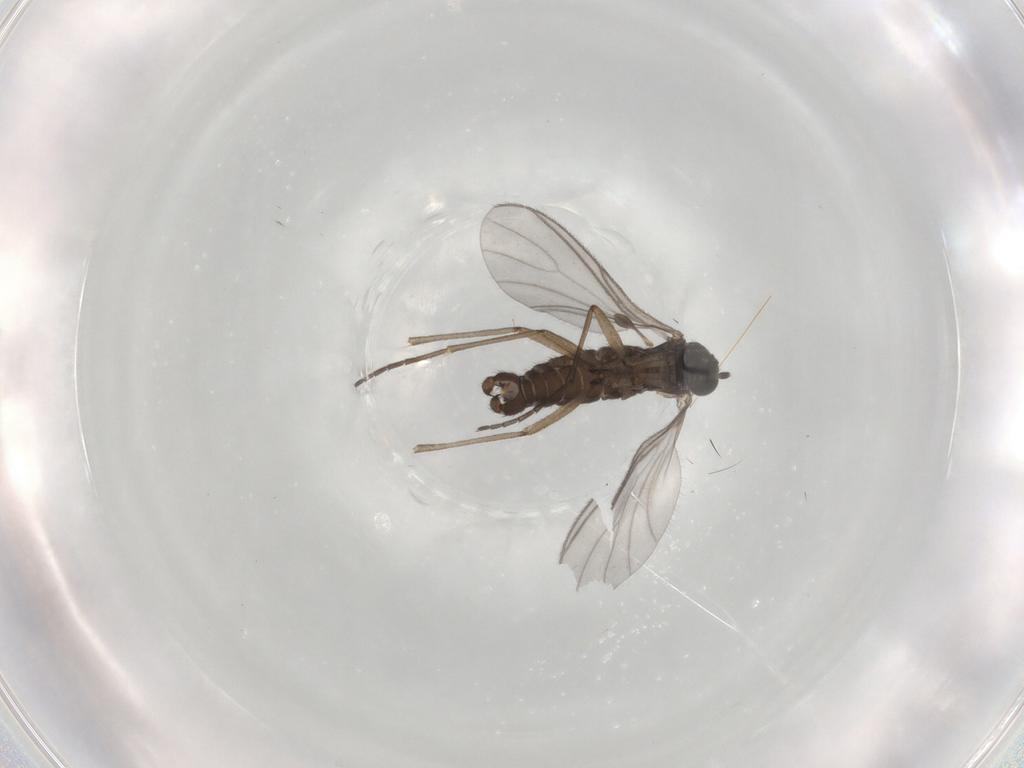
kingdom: Animalia
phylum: Arthropoda
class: Insecta
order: Diptera
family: Sciaridae
